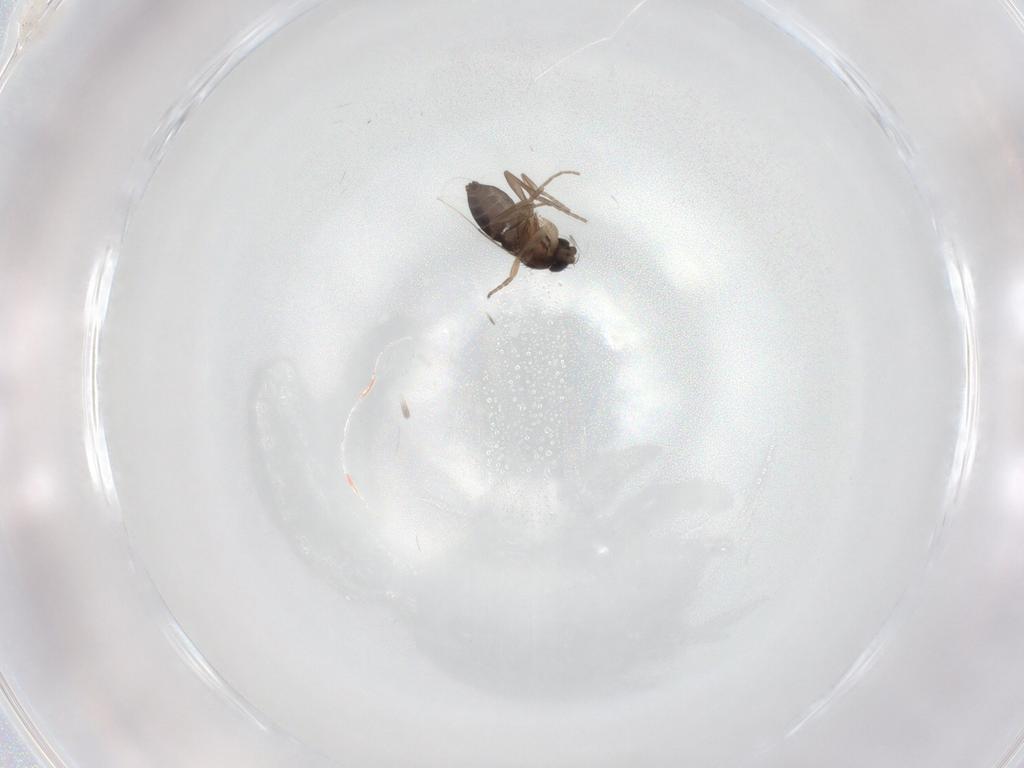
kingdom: Animalia
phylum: Arthropoda
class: Insecta
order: Diptera
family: Phoridae
